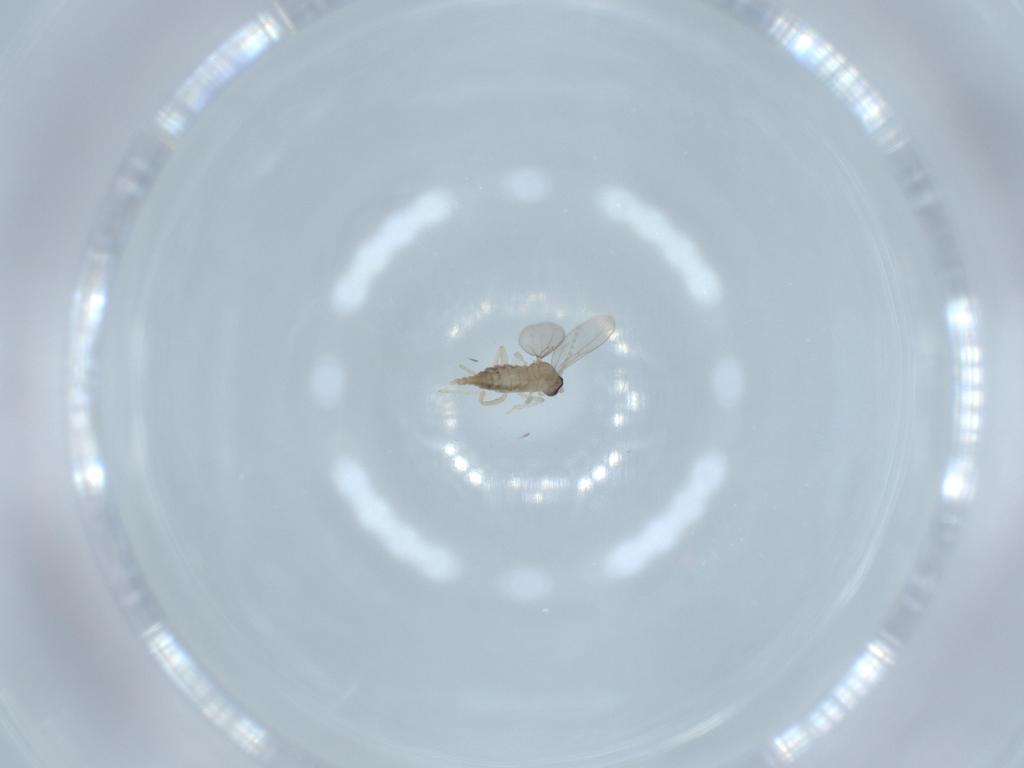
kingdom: Animalia
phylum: Arthropoda
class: Insecta
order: Diptera
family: Cecidomyiidae
